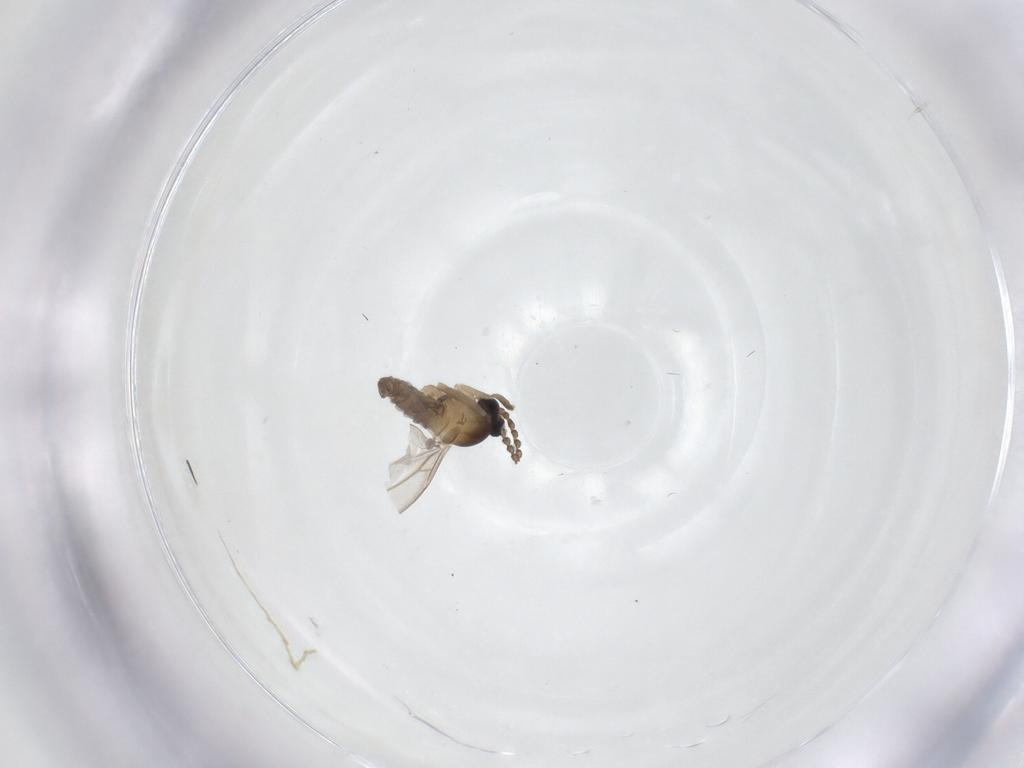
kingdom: Animalia
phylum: Arthropoda
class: Insecta
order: Diptera
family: Cecidomyiidae
